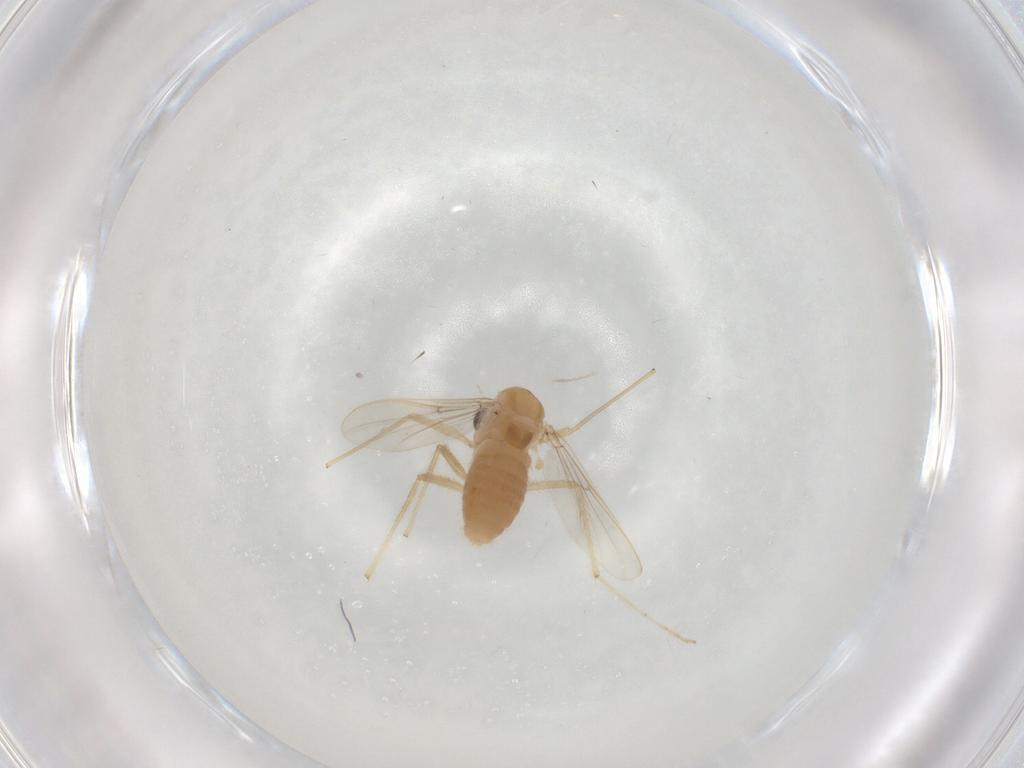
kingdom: Animalia
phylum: Arthropoda
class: Insecta
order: Diptera
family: Chironomidae
